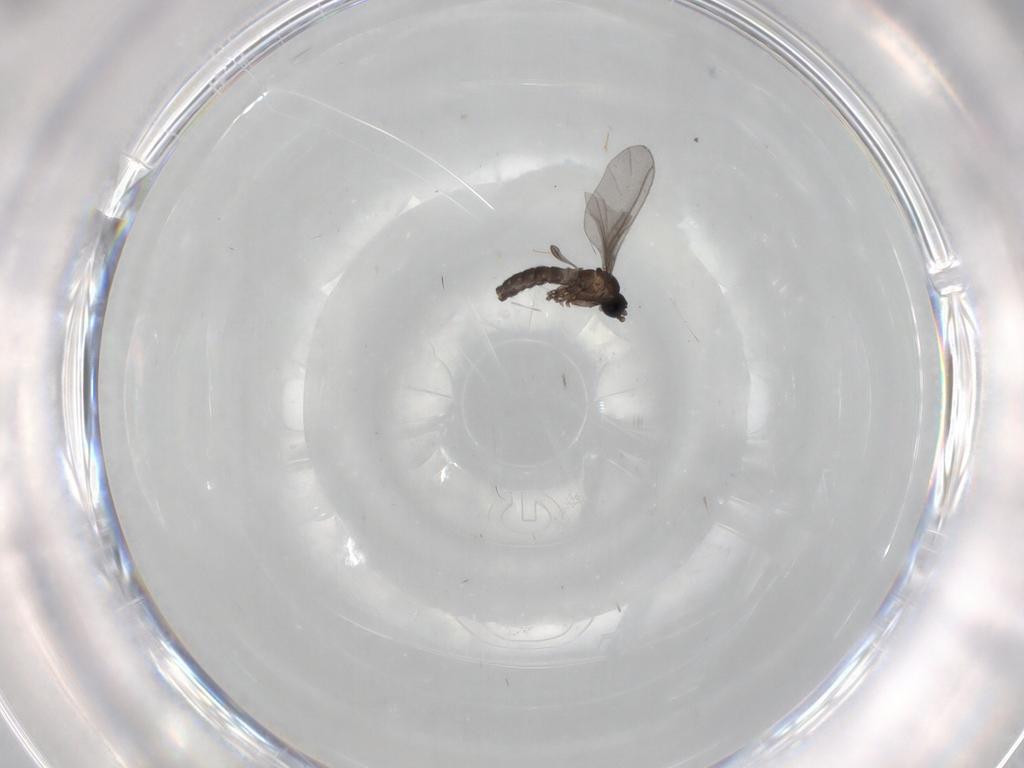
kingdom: Animalia
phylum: Arthropoda
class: Insecta
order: Diptera
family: Sciaridae
